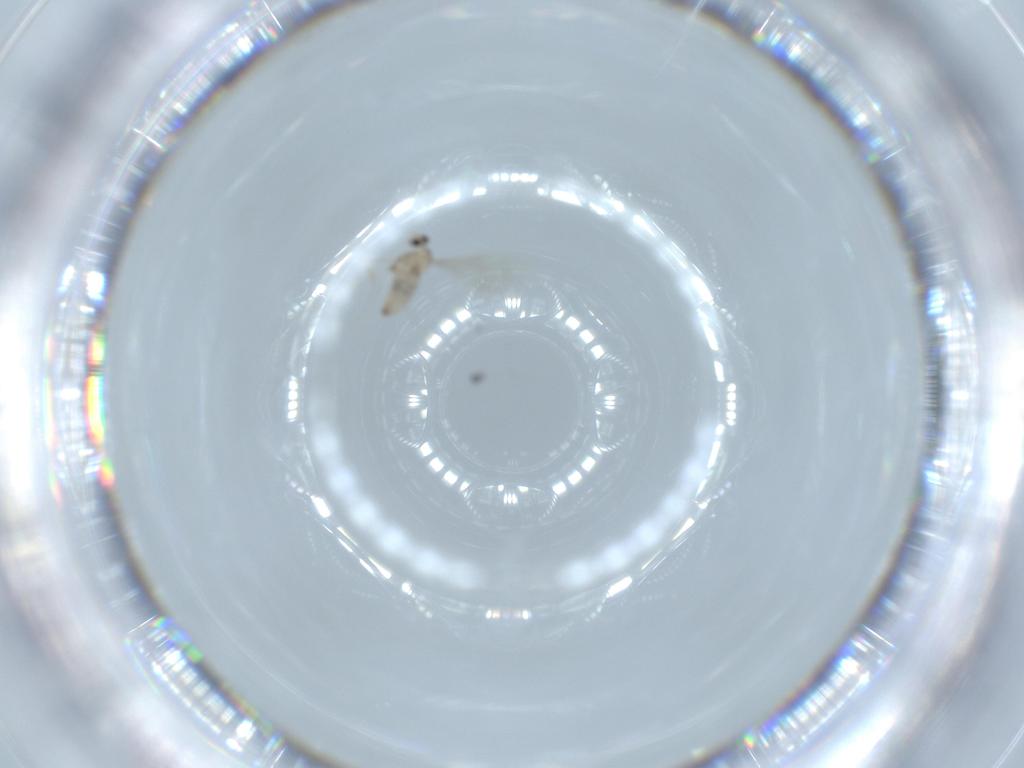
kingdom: Animalia
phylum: Arthropoda
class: Insecta
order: Diptera
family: Cecidomyiidae
